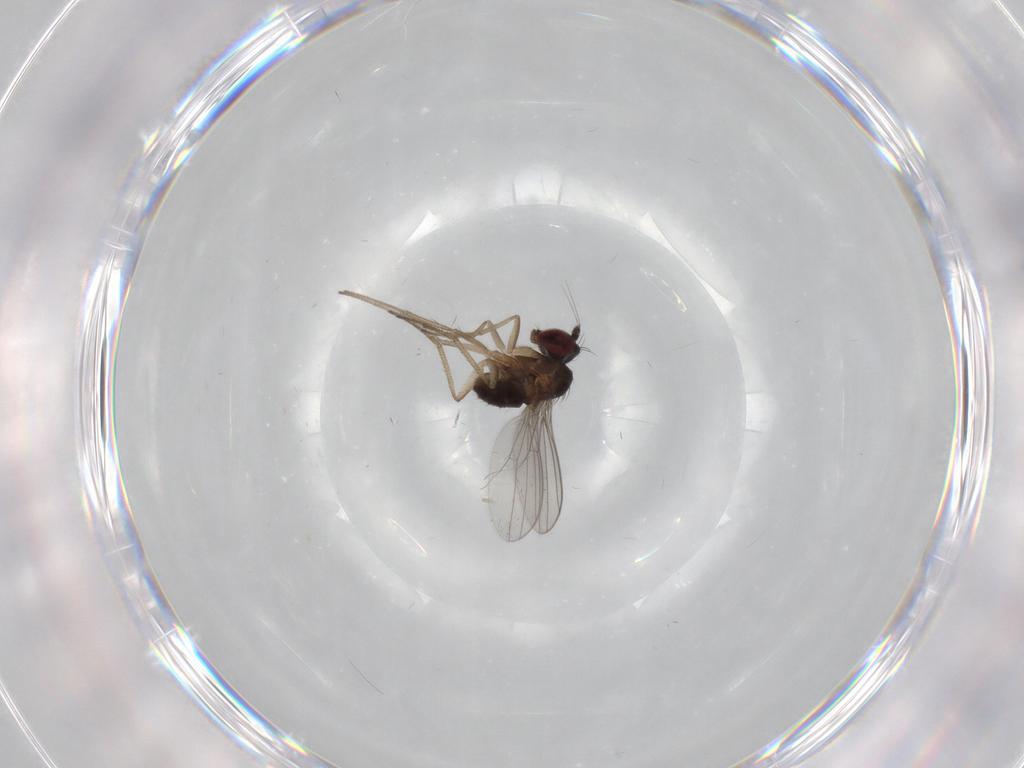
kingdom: Animalia
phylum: Arthropoda
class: Insecta
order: Diptera
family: Dolichopodidae
